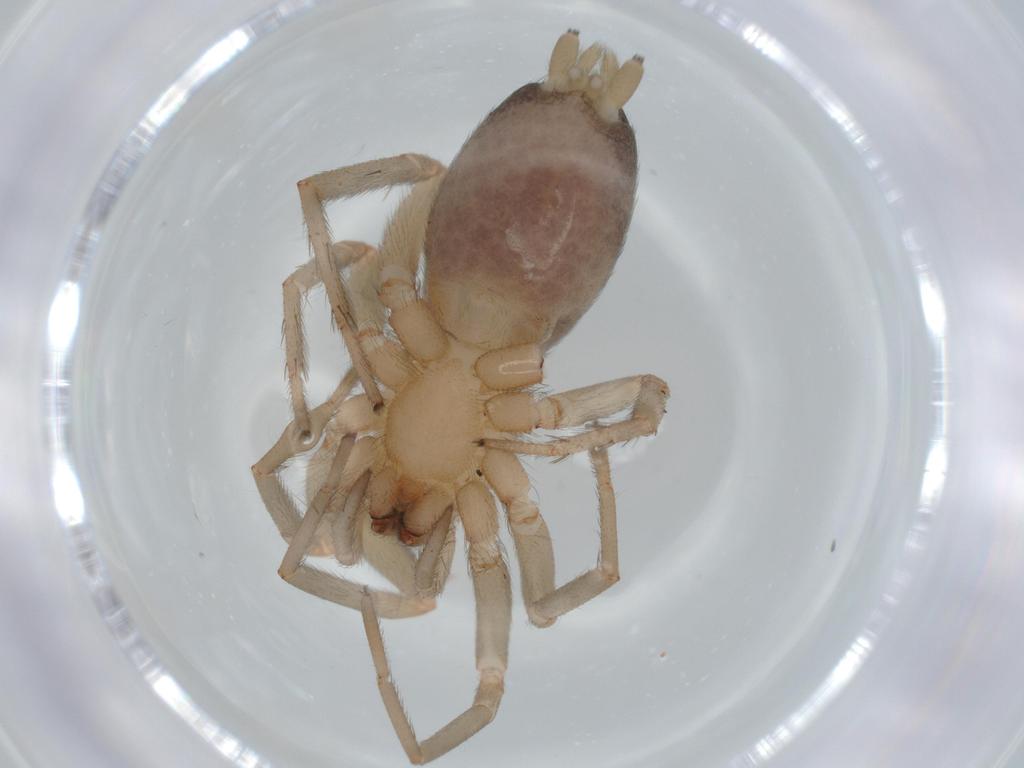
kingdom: Animalia
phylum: Arthropoda
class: Arachnida
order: Araneae
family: Gnaphosidae
